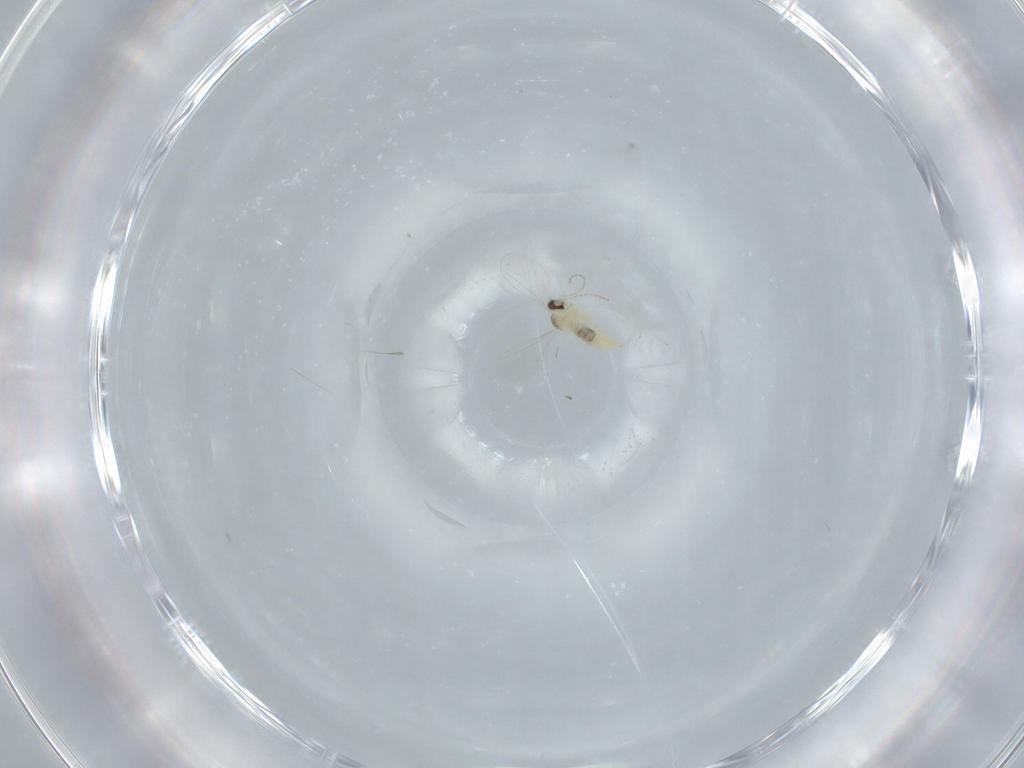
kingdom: Animalia
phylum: Arthropoda
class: Insecta
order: Diptera
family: Cecidomyiidae
